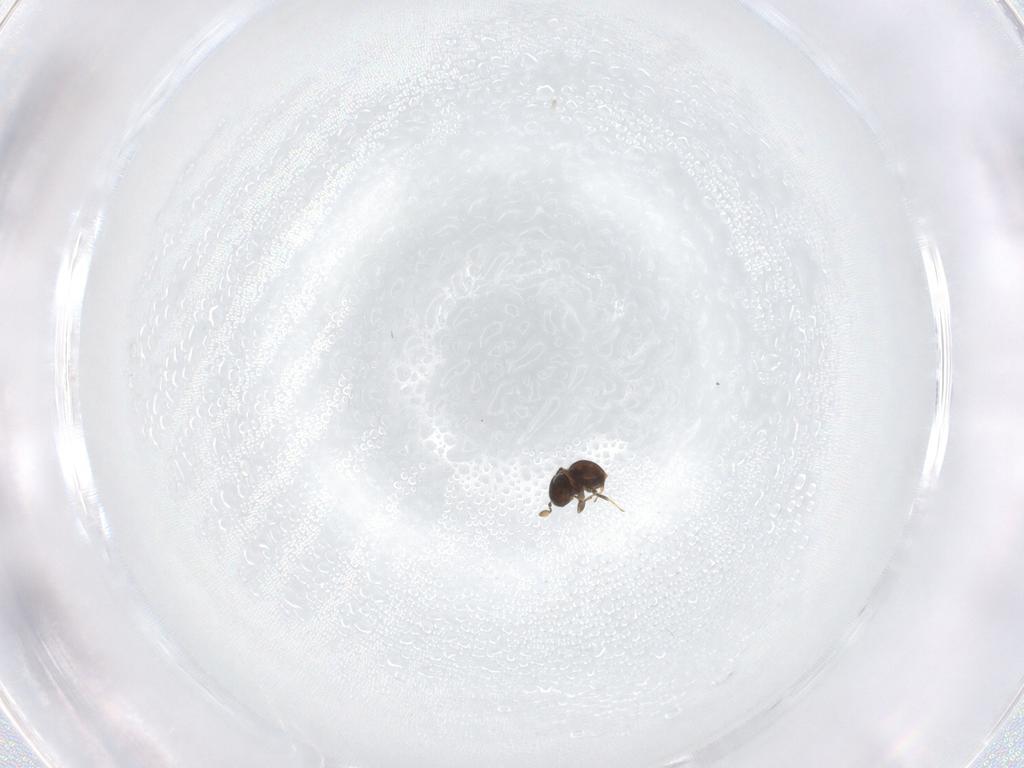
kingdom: Animalia
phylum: Arthropoda
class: Insecta
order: Hymenoptera
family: Scelionidae
